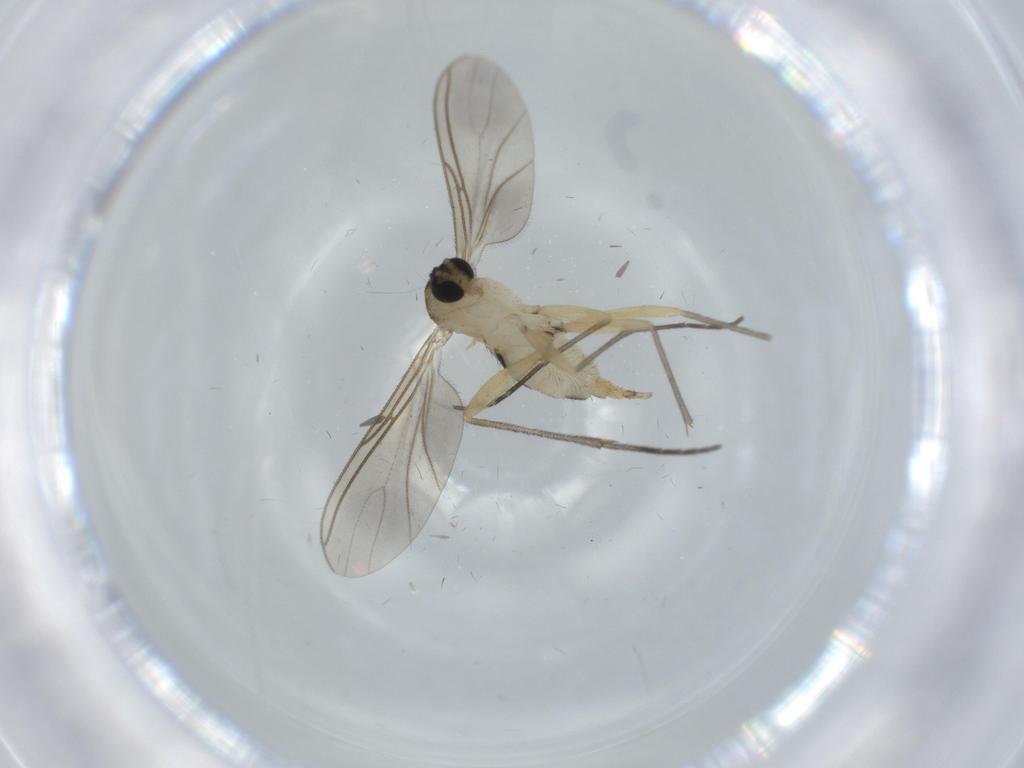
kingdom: Animalia
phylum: Arthropoda
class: Insecta
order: Diptera
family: Sciaridae
